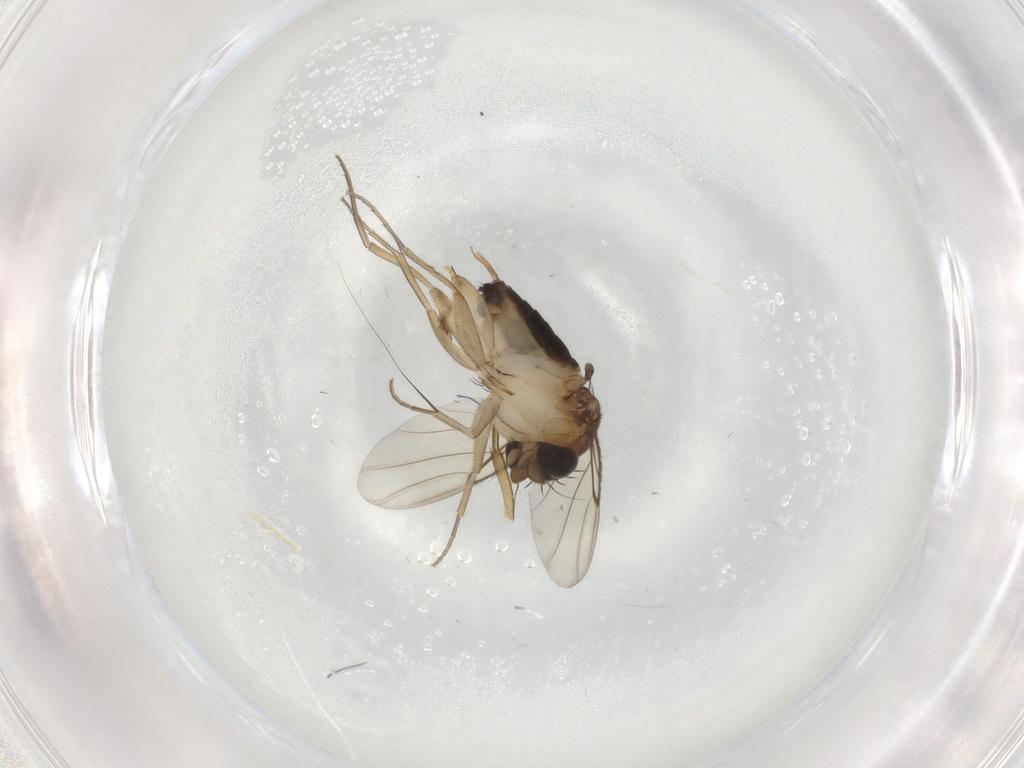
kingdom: Animalia
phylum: Arthropoda
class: Insecta
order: Diptera
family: Phoridae
